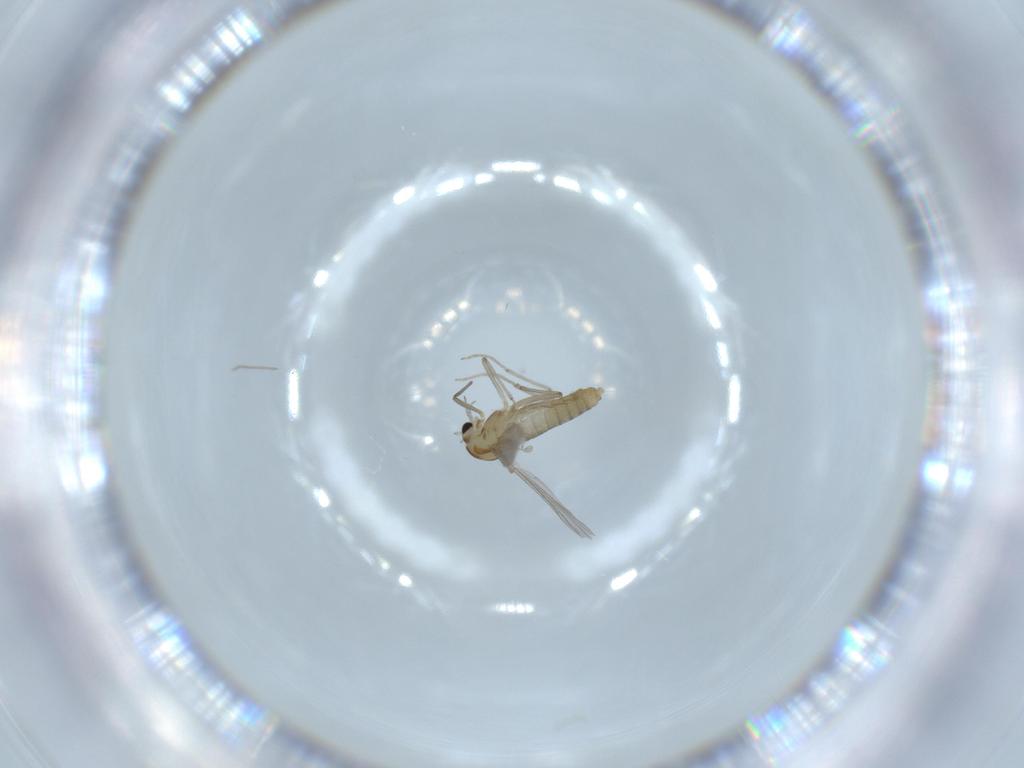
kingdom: Animalia
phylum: Arthropoda
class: Insecta
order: Diptera
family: Chironomidae
